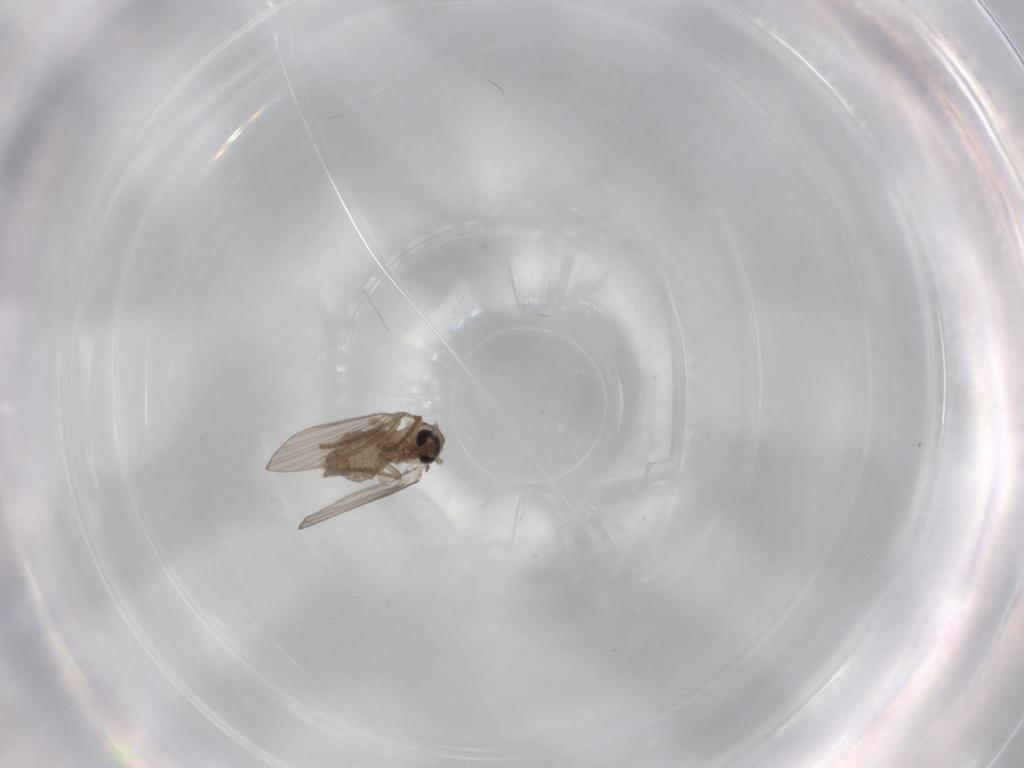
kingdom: Animalia
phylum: Arthropoda
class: Insecta
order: Diptera
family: Psychodidae
